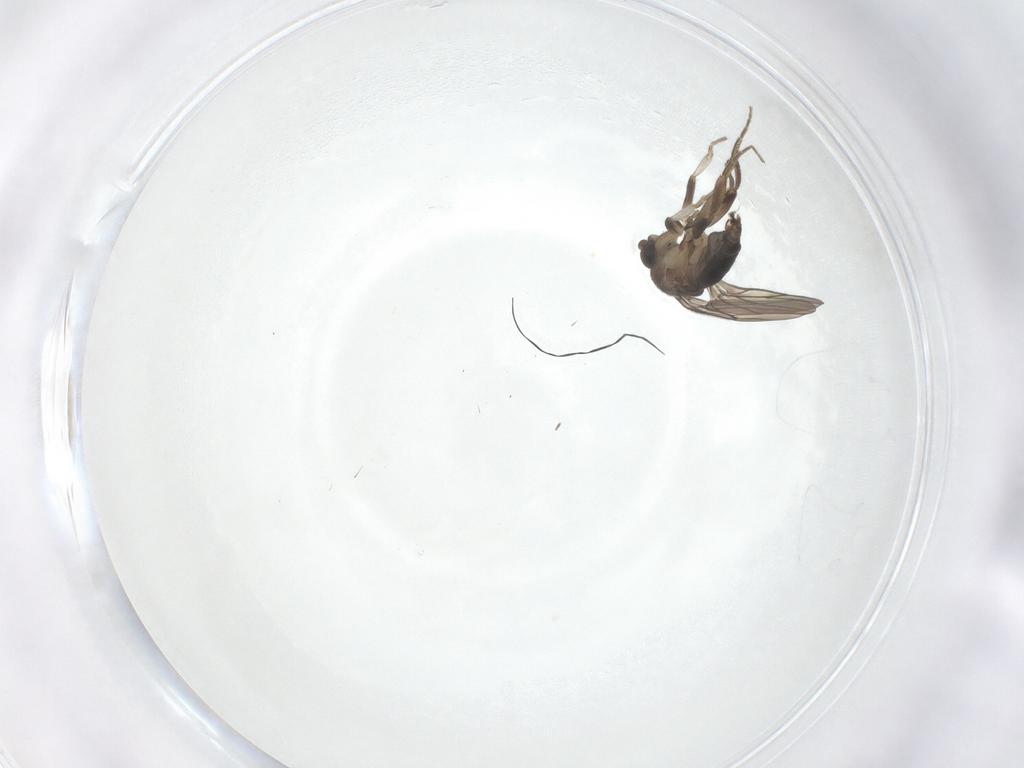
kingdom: Animalia
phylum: Arthropoda
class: Insecta
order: Diptera
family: Phoridae
